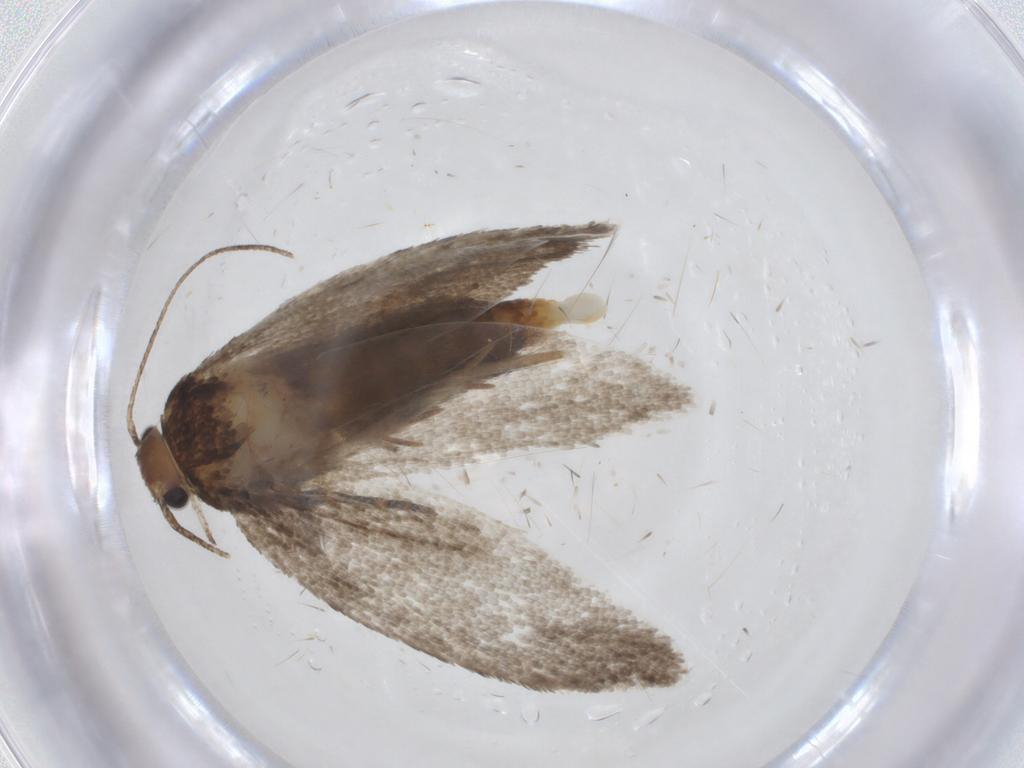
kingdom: Animalia
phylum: Arthropoda
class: Insecta
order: Lepidoptera
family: Oecophoridae
